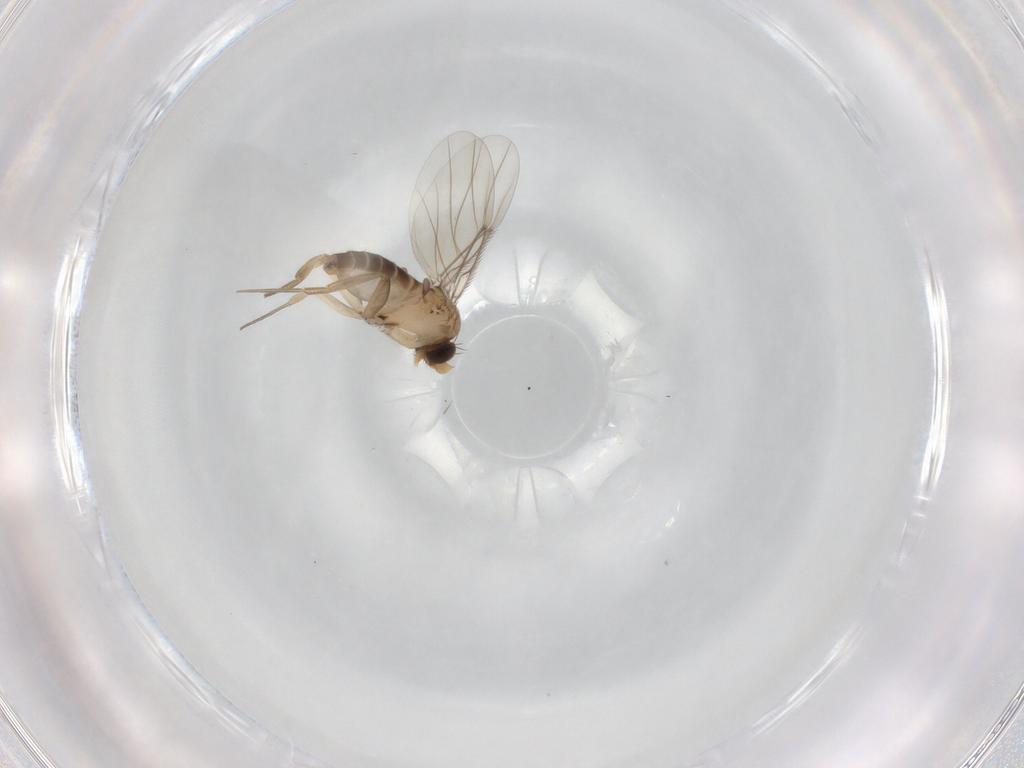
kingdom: Animalia
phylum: Arthropoda
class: Insecta
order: Diptera
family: Phoridae
